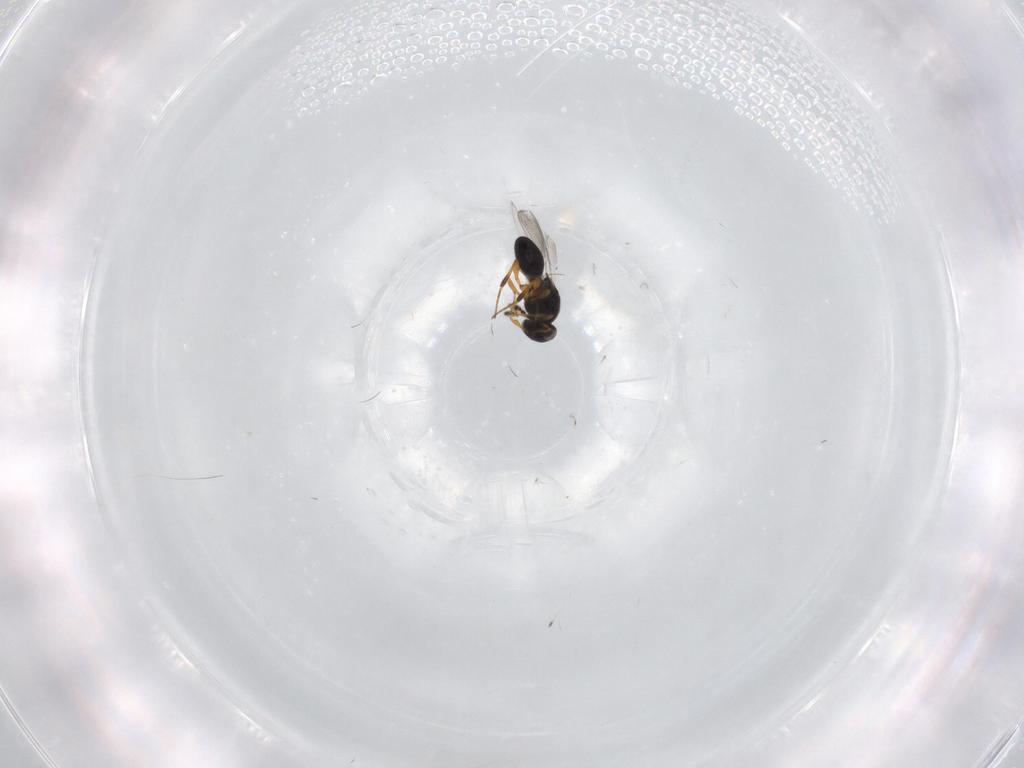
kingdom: Animalia
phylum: Arthropoda
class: Insecta
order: Hymenoptera
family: Platygastridae
